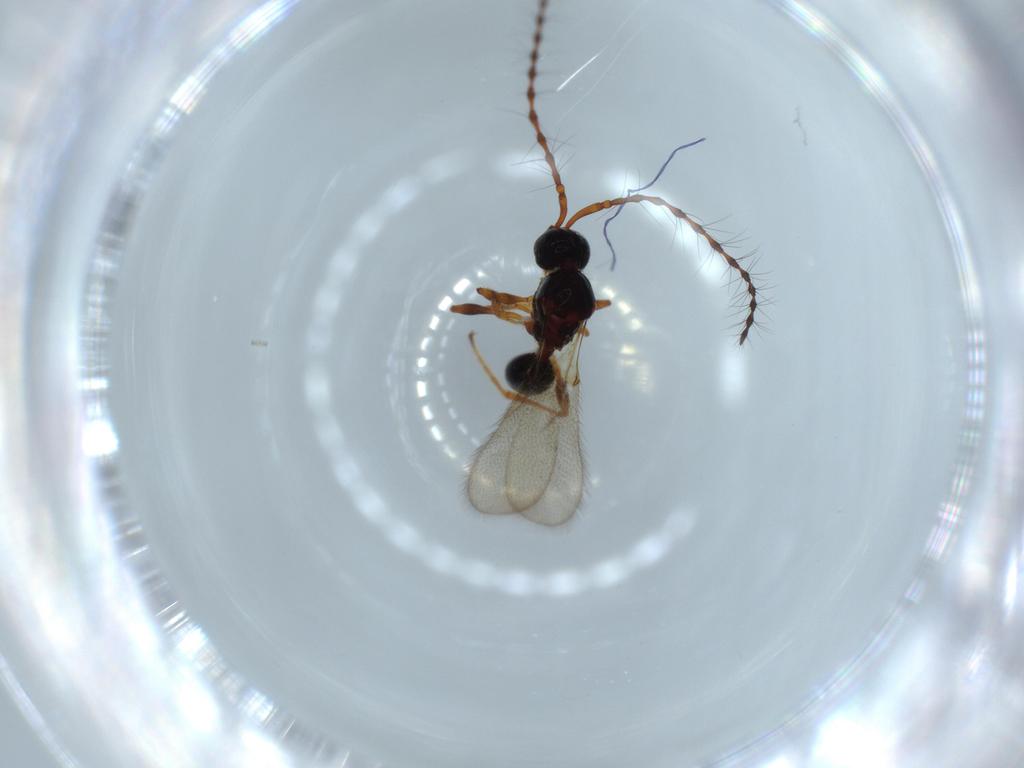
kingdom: Animalia
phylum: Arthropoda
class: Insecta
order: Hymenoptera
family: Diapriidae
